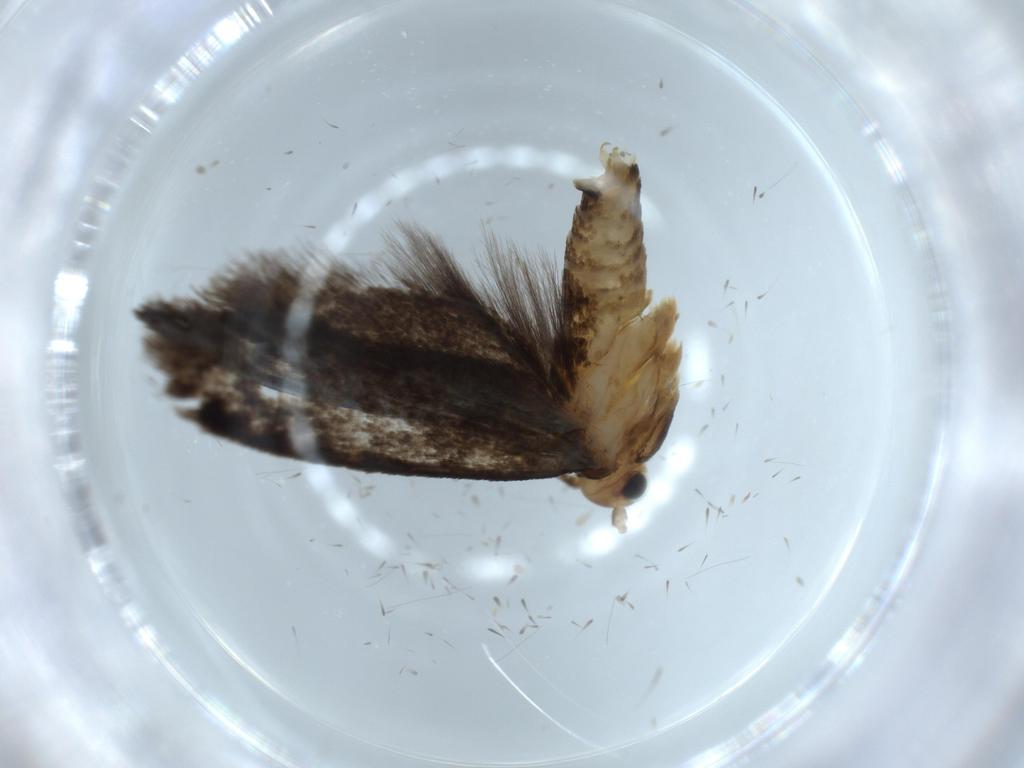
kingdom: Animalia
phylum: Arthropoda
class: Insecta
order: Lepidoptera
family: Tineidae
